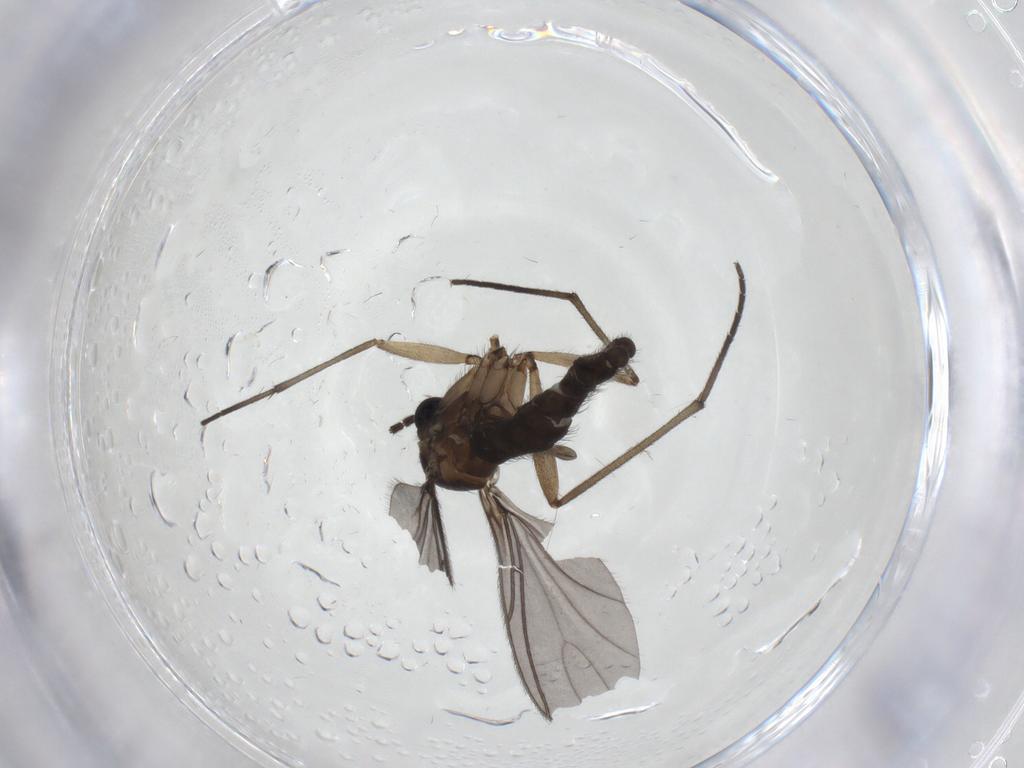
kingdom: Animalia
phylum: Arthropoda
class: Insecta
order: Diptera
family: Sciaridae
